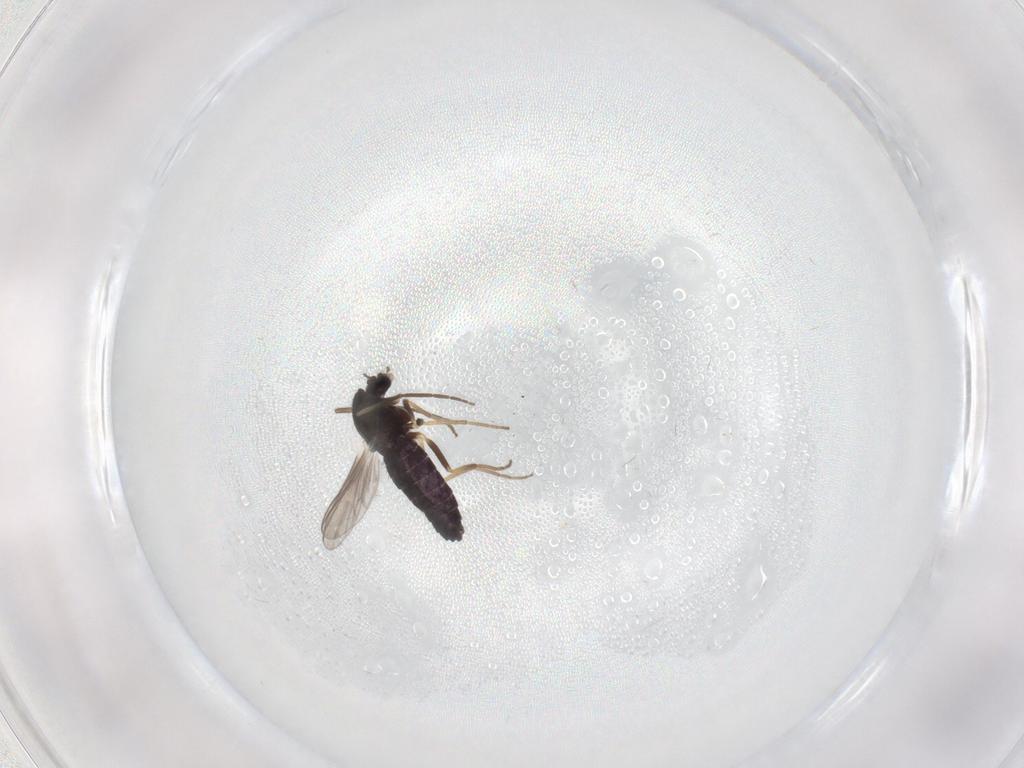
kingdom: Animalia
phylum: Arthropoda
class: Insecta
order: Diptera
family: Chironomidae
